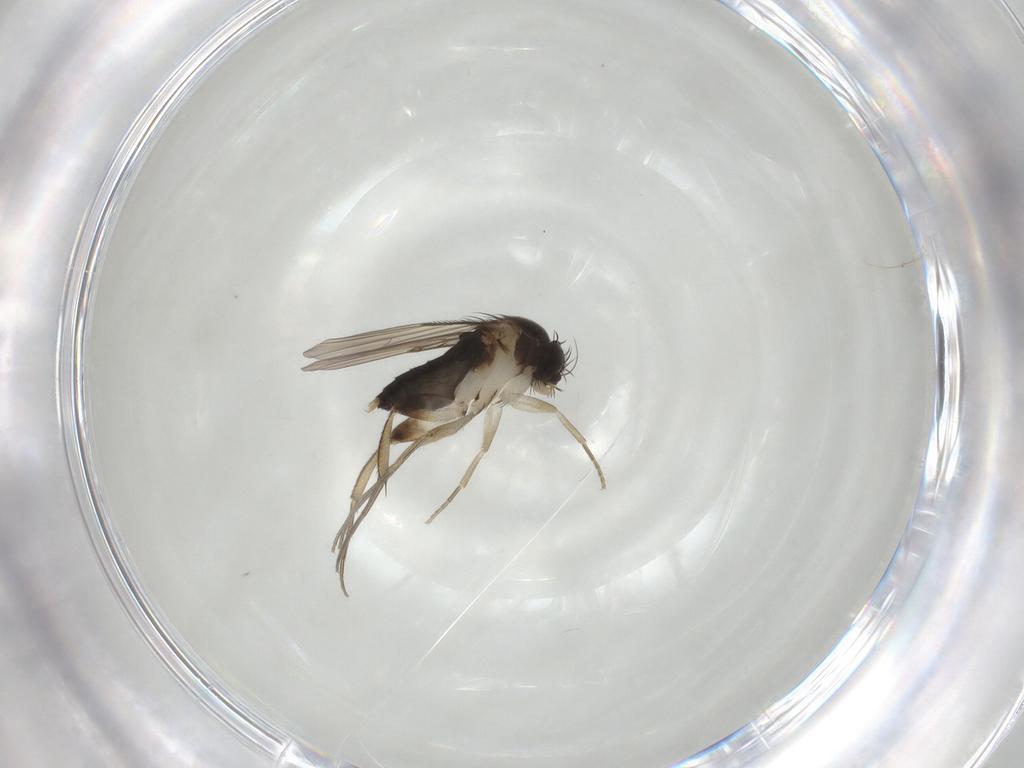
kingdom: Animalia
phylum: Arthropoda
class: Insecta
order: Diptera
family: Phoridae
